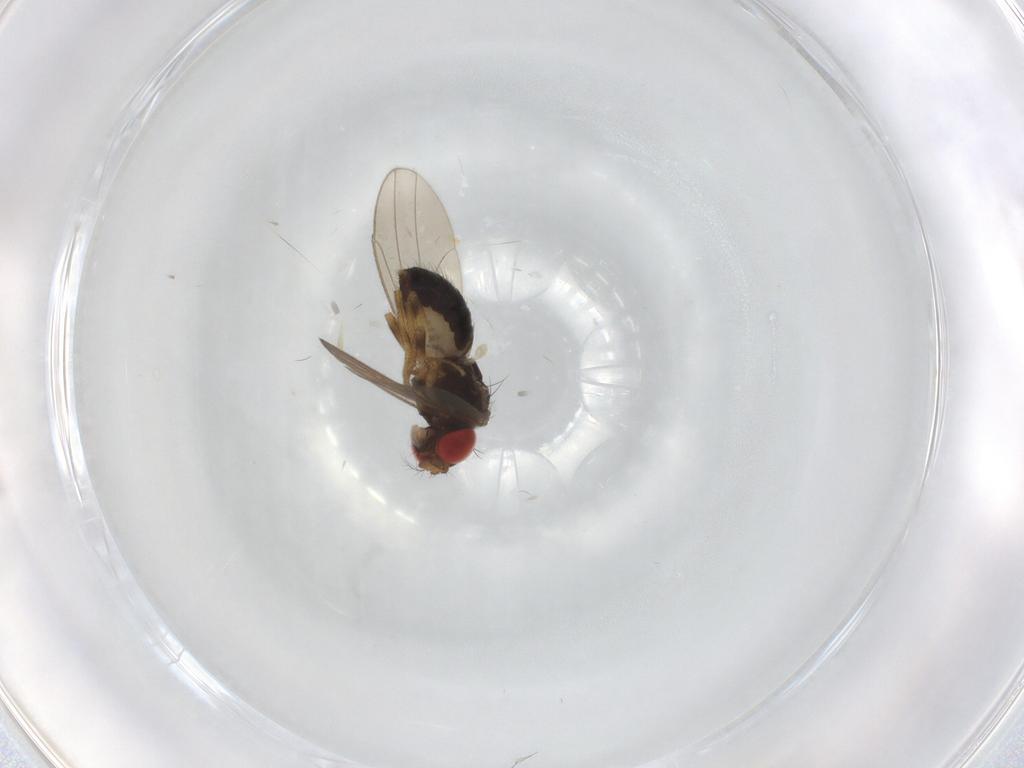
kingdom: Animalia
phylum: Arthropoda
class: Insecta
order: Diptera
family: Drosophilidae
